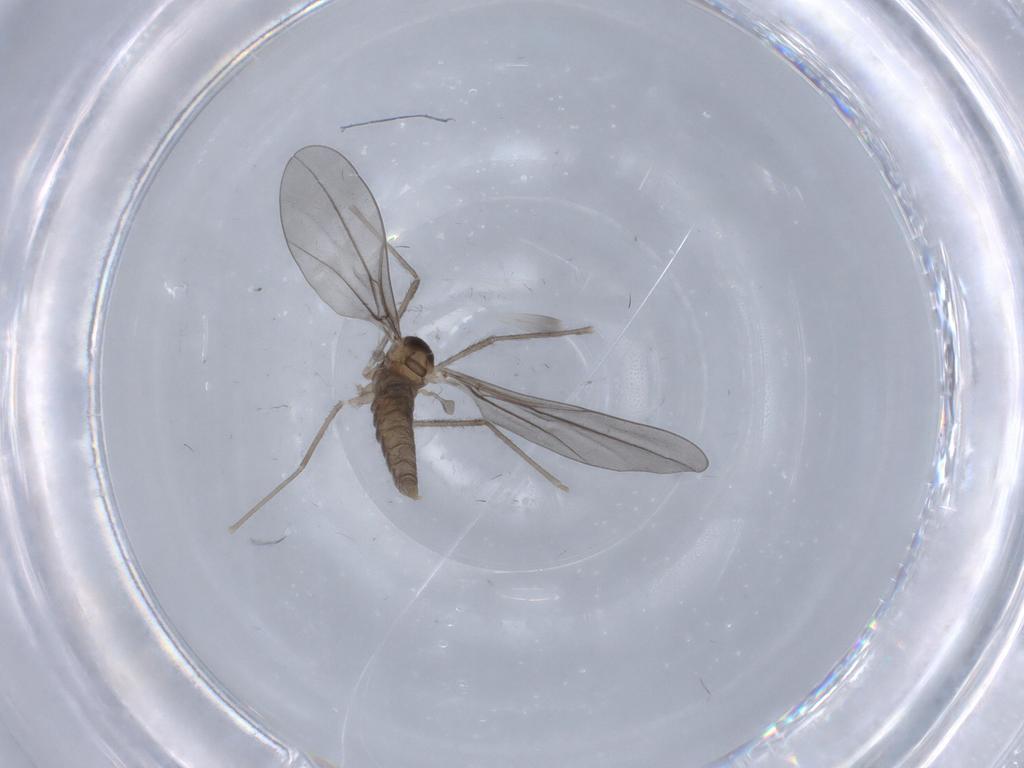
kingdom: Animalia
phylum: Arthropoda
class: Insecta
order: Diptera
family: Cecidomyiidae
